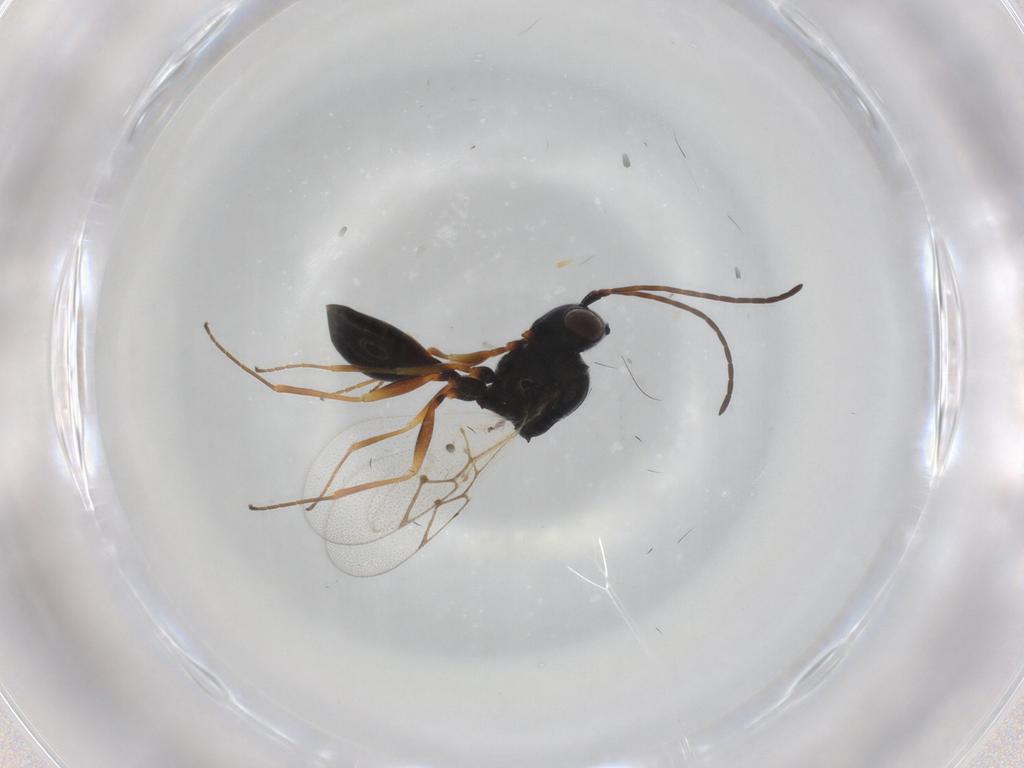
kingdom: Animalia
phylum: Arthropoda
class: Insecta
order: Hymenoptera
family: Figitidae
